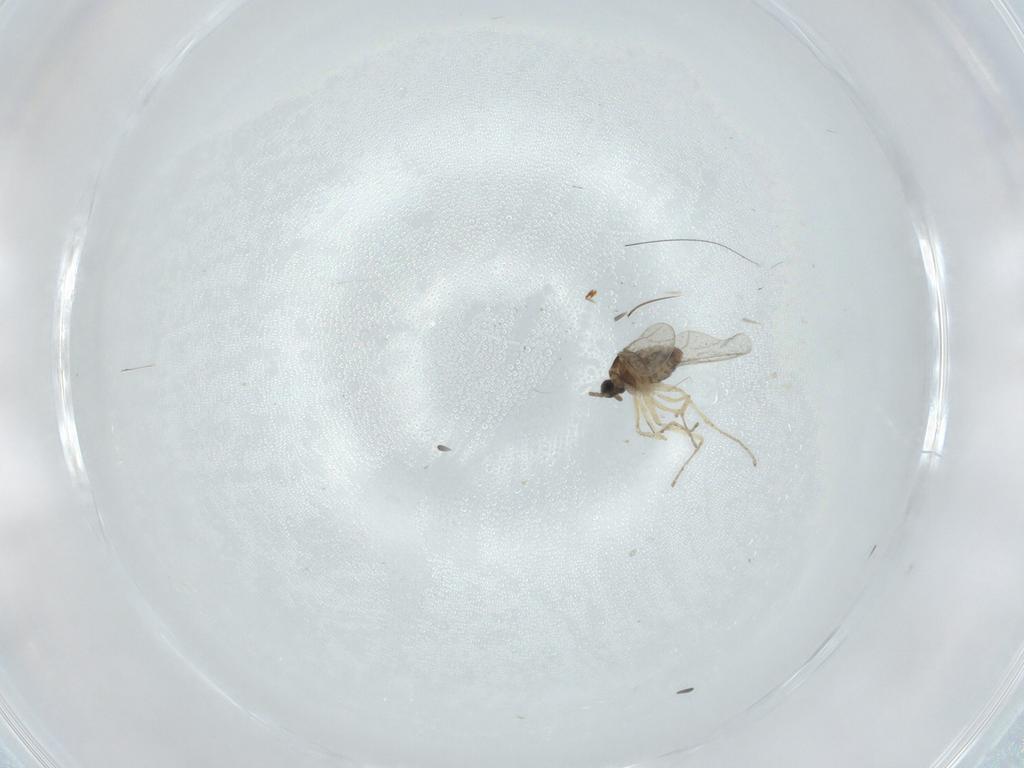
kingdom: Animalia
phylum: Arthropoda
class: Insecta
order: Diptera
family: Cecidomyiidae
